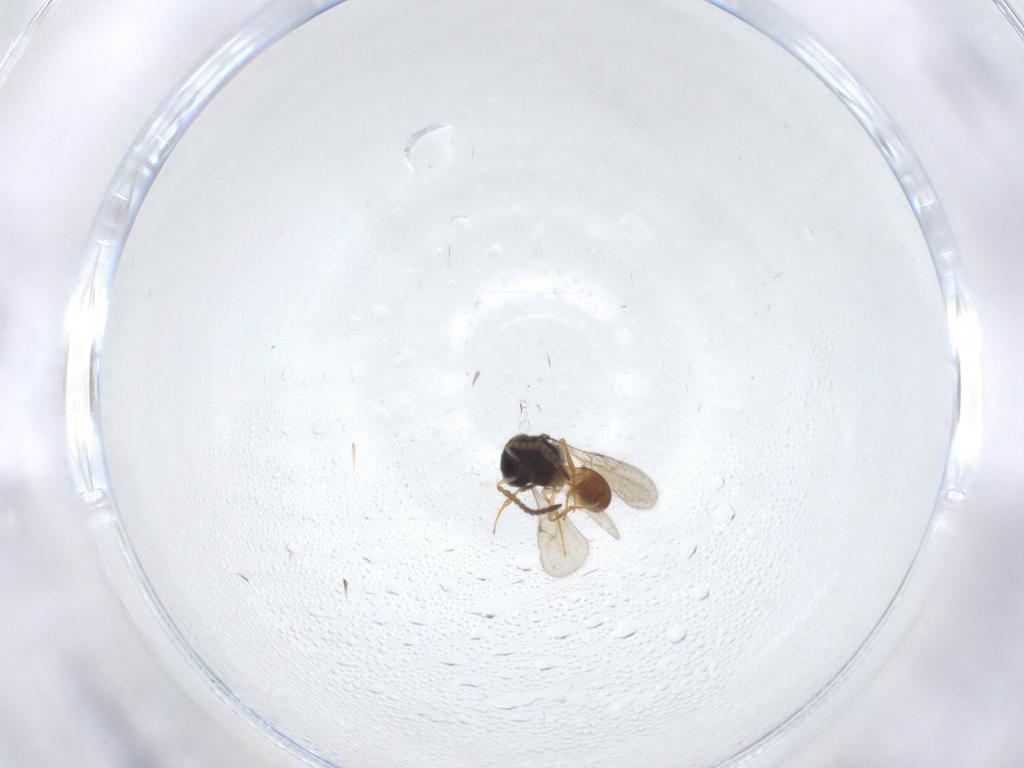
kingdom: Animalia
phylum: Arthropoda
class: Insecta
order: Hymenoptera
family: Scelionidae
